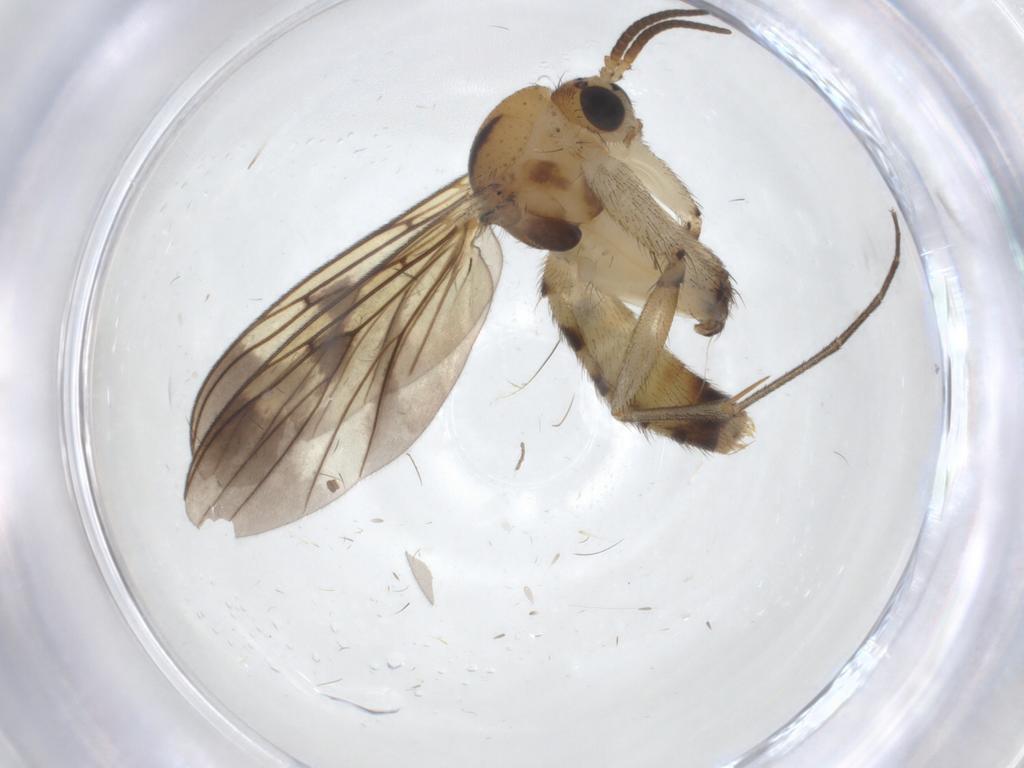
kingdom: Animalia
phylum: Arthropoda
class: Insecta
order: Diptera
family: Mycetophilidae
